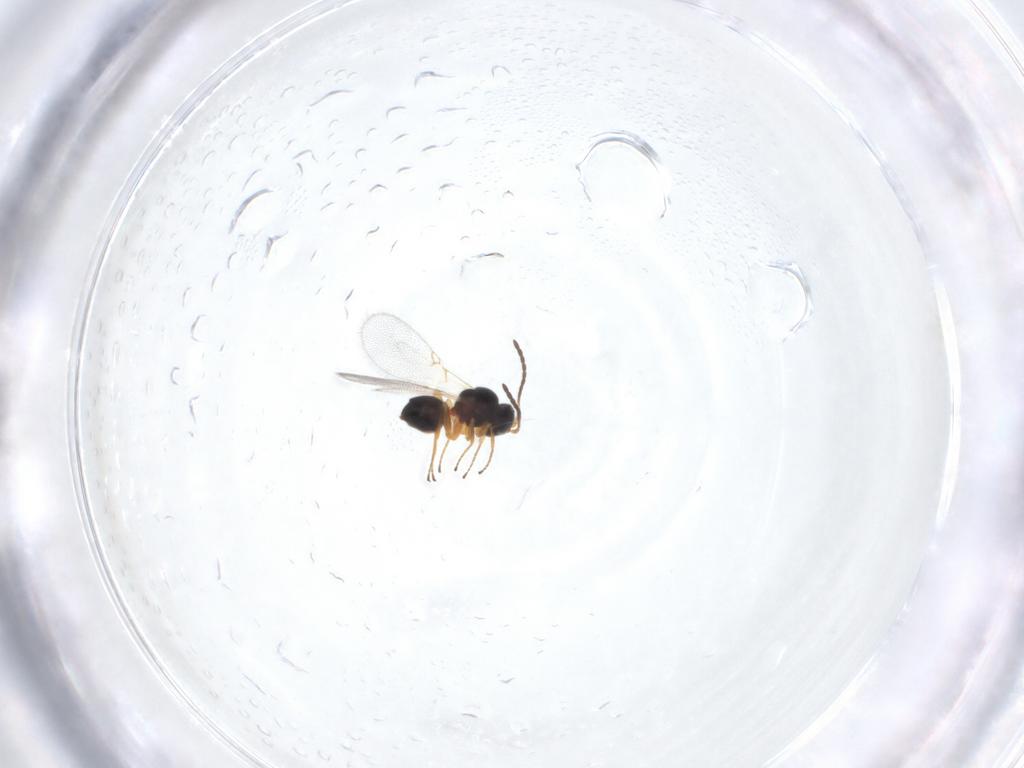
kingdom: Animalia
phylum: Arthropoda
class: Insecta
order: Hymenoptera
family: Figitidae
